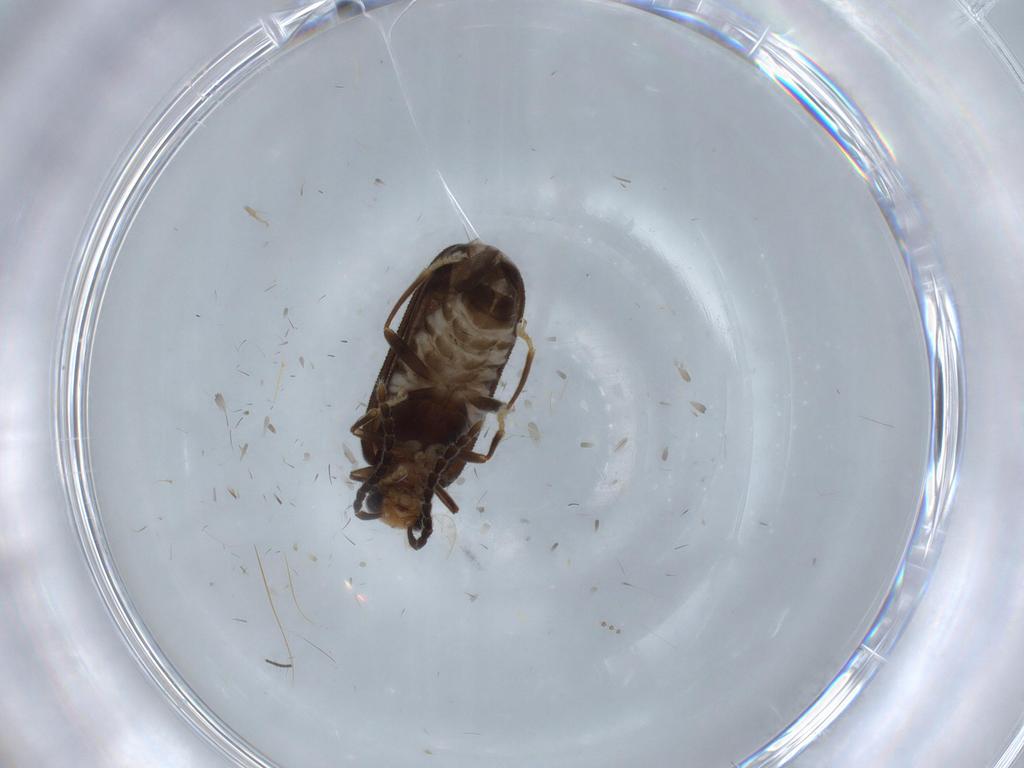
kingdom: Animalia
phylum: Arthropoda
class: Insecta
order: Coleoptera
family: Cantharidae
